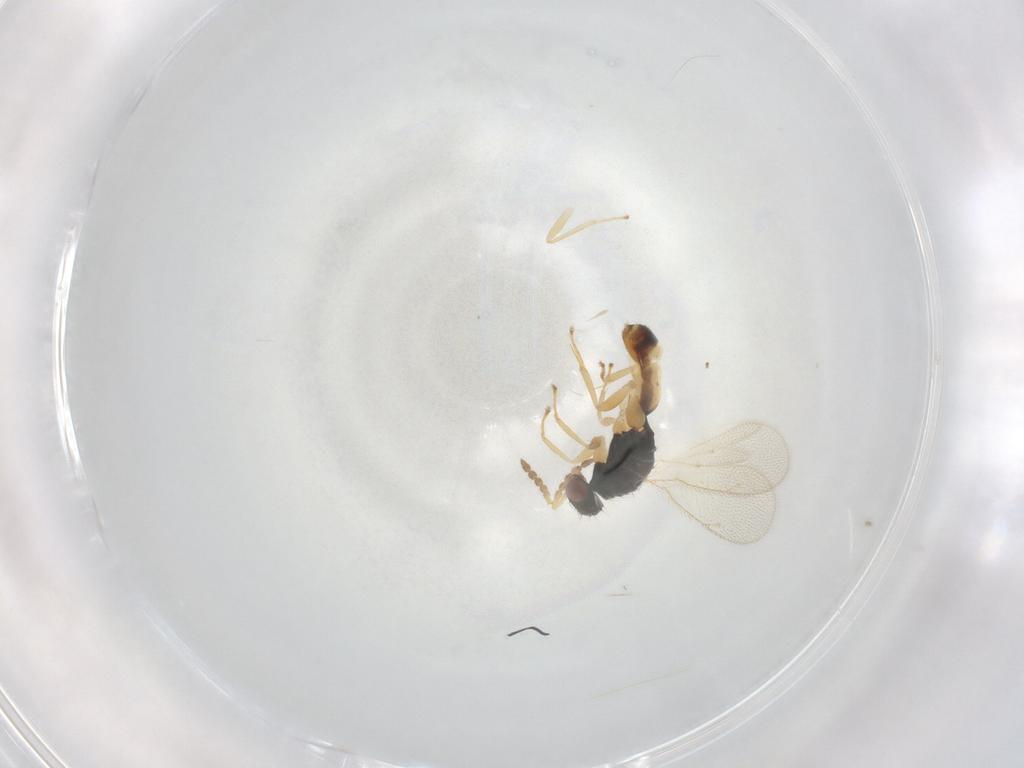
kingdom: Animalia
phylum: Arthropoda
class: Insecta
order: Hymenoptera
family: Eulophidae
